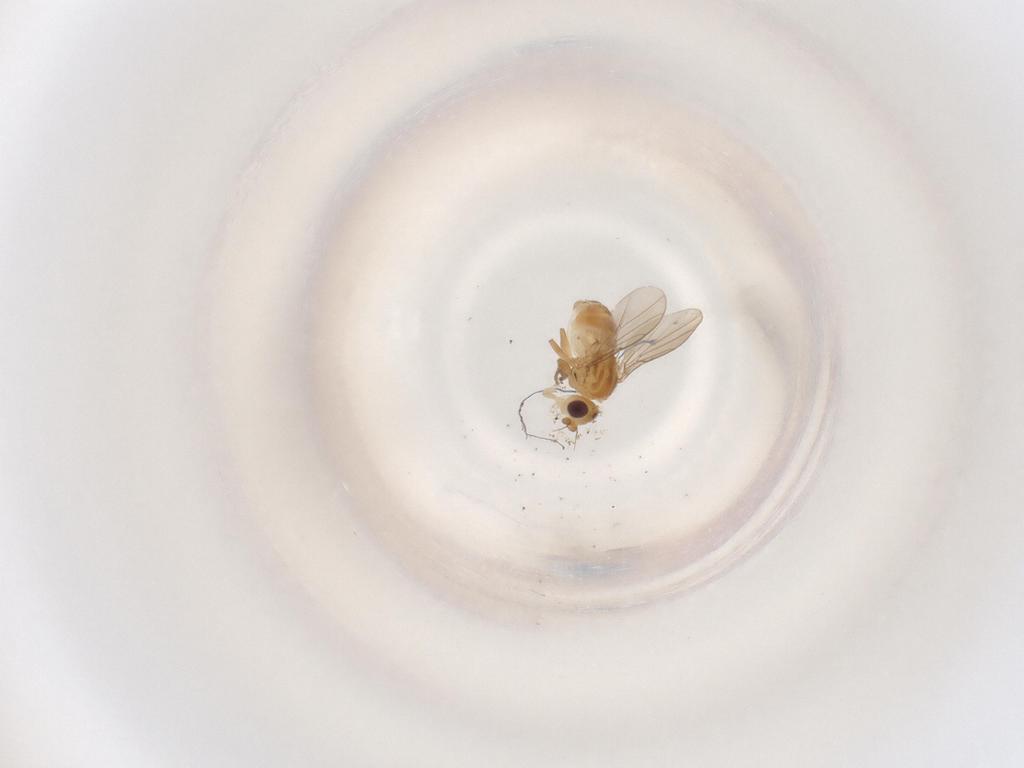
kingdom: Animalia
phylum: Arthropoda
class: Insecta
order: Diptera
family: Chloropidae
